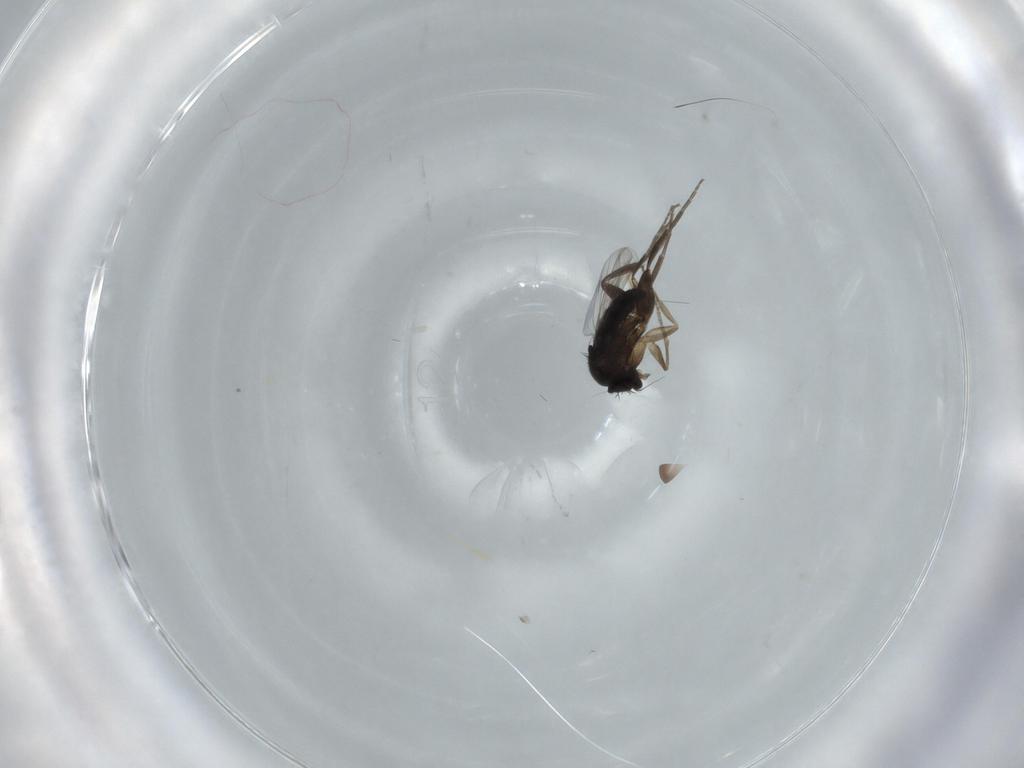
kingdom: Animalia
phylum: Arthropoda
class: Insecta
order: Diptera
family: Phoridae
